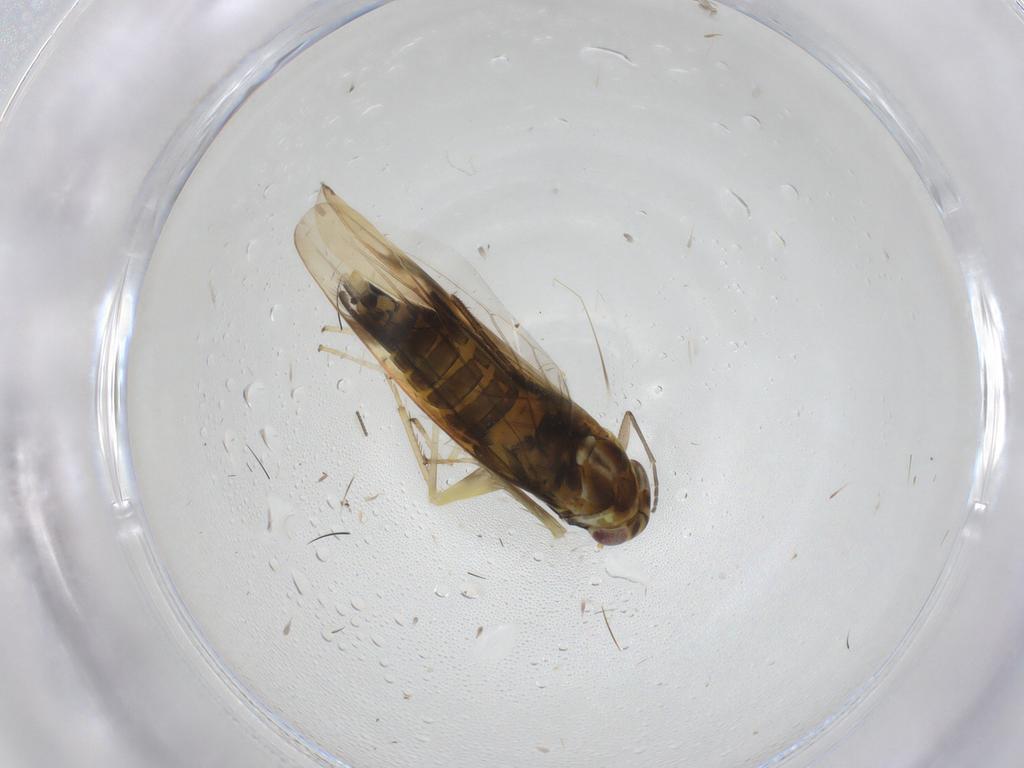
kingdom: Animalia
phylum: Arthropoda
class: Insecta
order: Hemiptera
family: Cicadellidae
